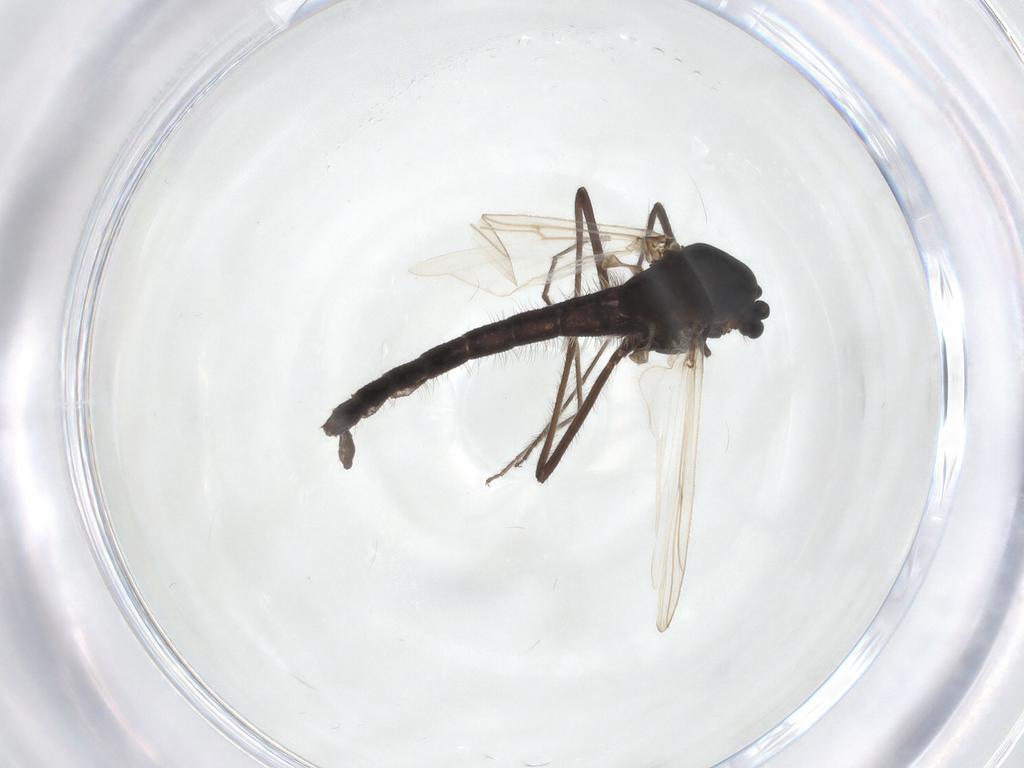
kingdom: Animalia
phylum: Arthropoda
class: Insecta
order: Diptera
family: Chironomidae
